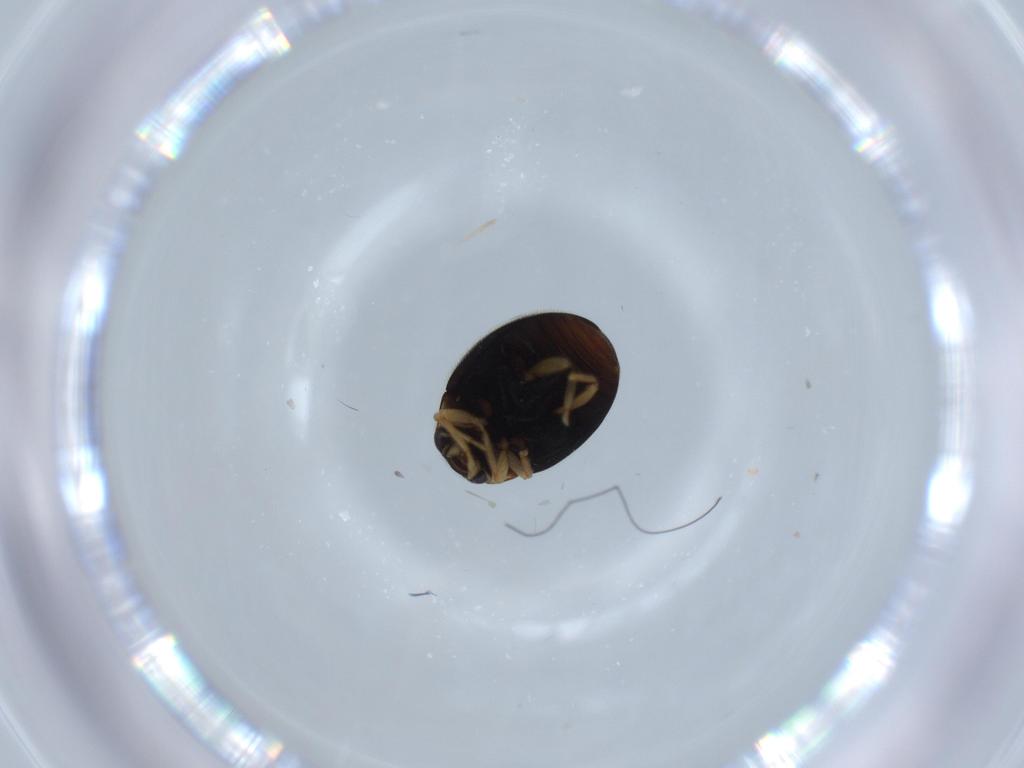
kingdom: Animalia
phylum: Arthropoda
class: Insecta
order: Coleoptera
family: Coccinellidae
